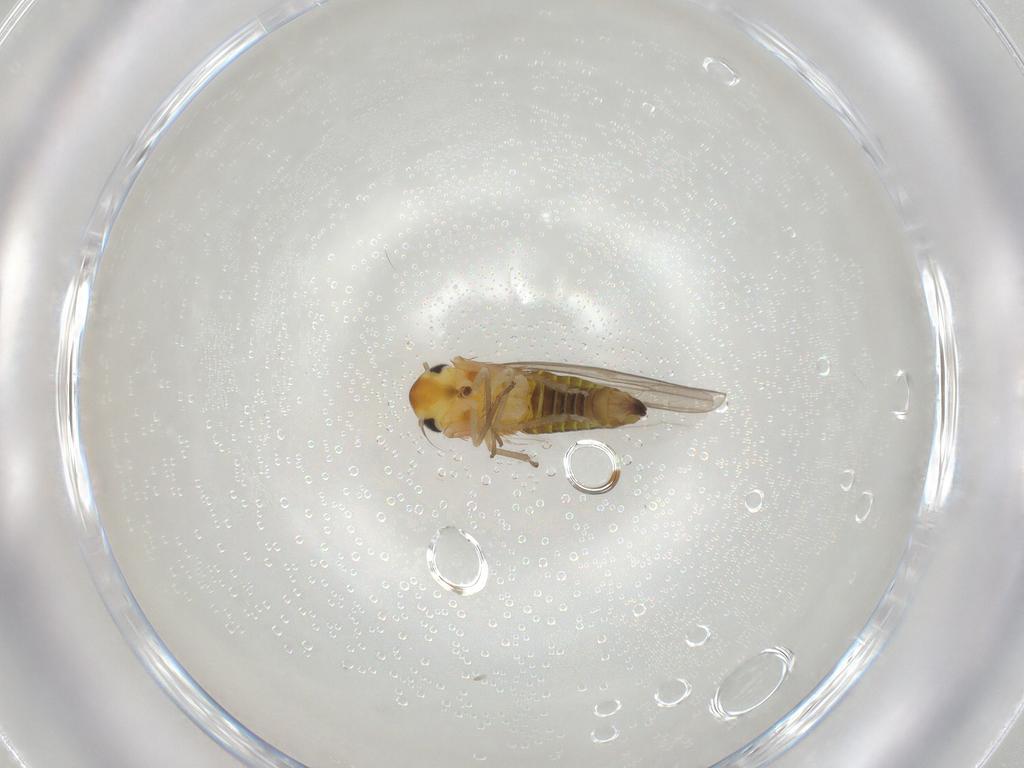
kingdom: Animalia
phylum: Arthropoda
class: Insecta
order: Hemiptera
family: Cicadellidae
